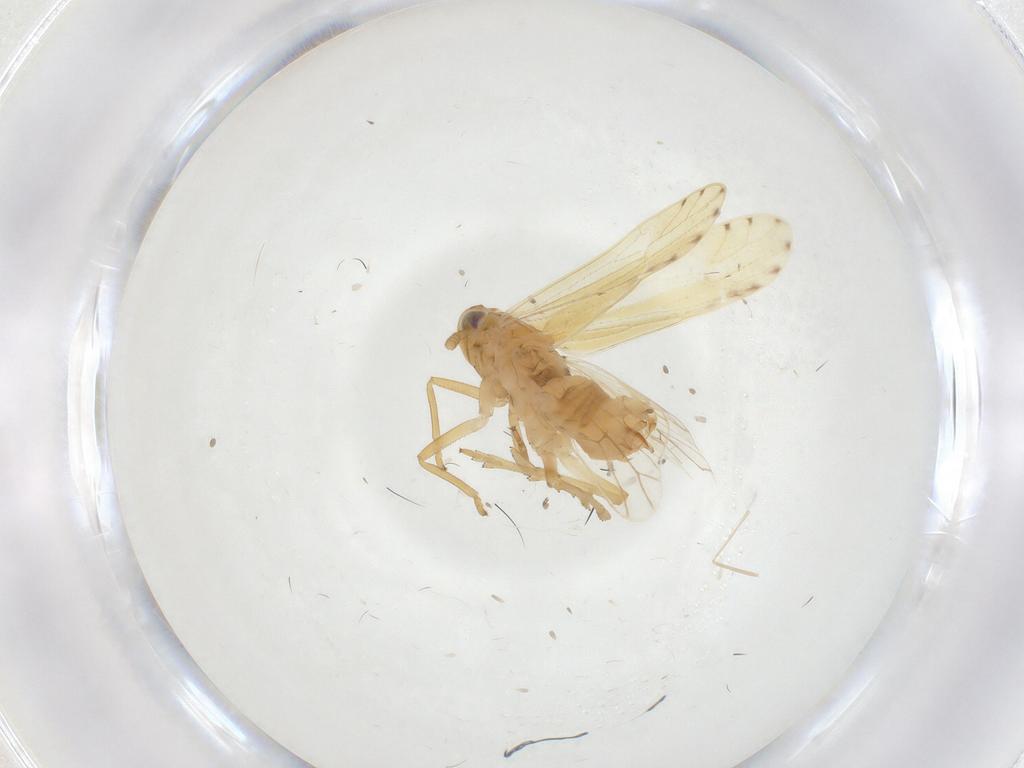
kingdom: Animalia
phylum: Arthropoda
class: Insecta
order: Hemiptera
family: Delphacidae
